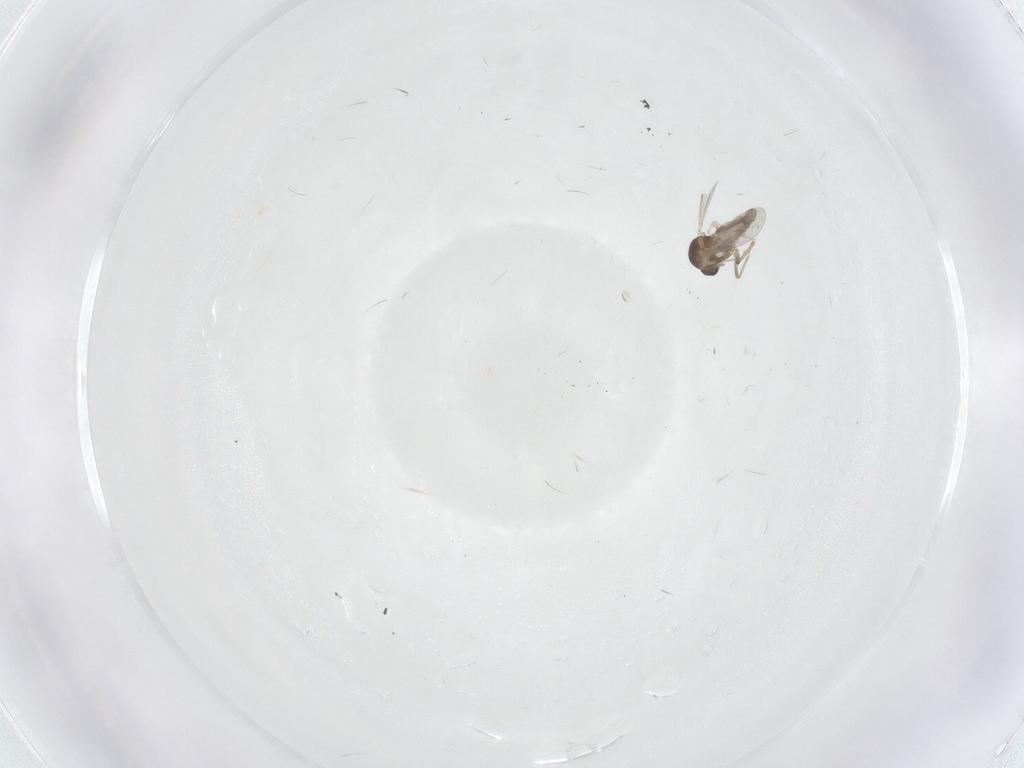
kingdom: Animalia
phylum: Arthropoda
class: Insecta
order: Diptera
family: Ceratopogonidae
